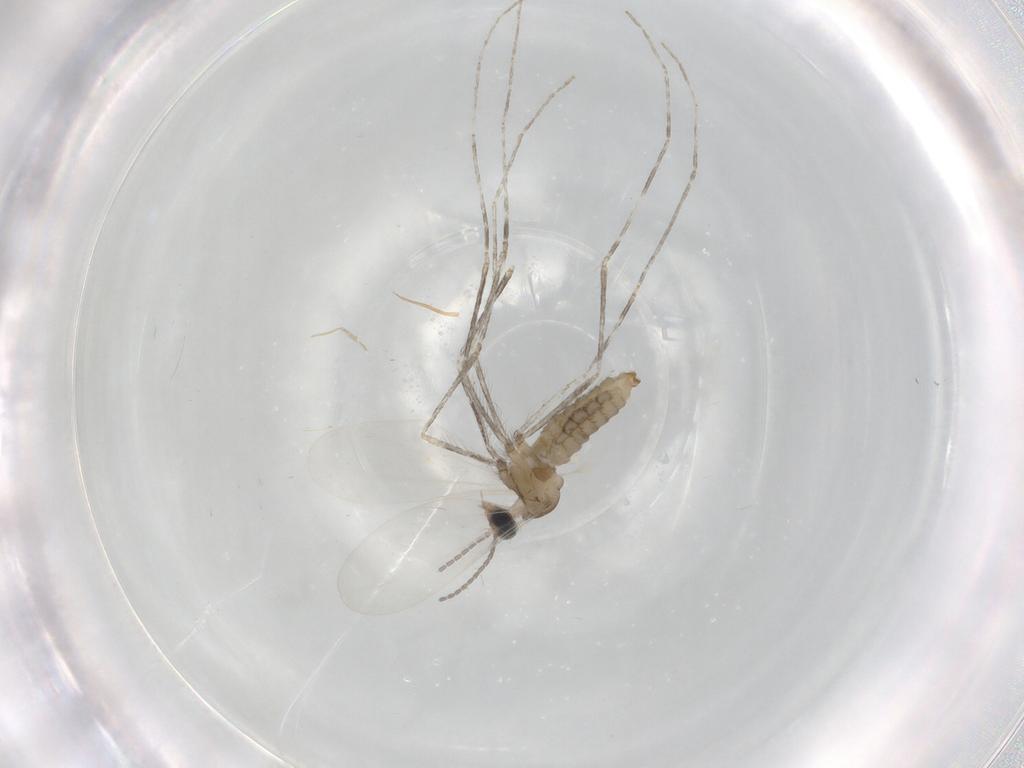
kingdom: Animalia
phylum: Arthropoda
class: Insecta
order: Diptera
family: Cecidomyiidae
